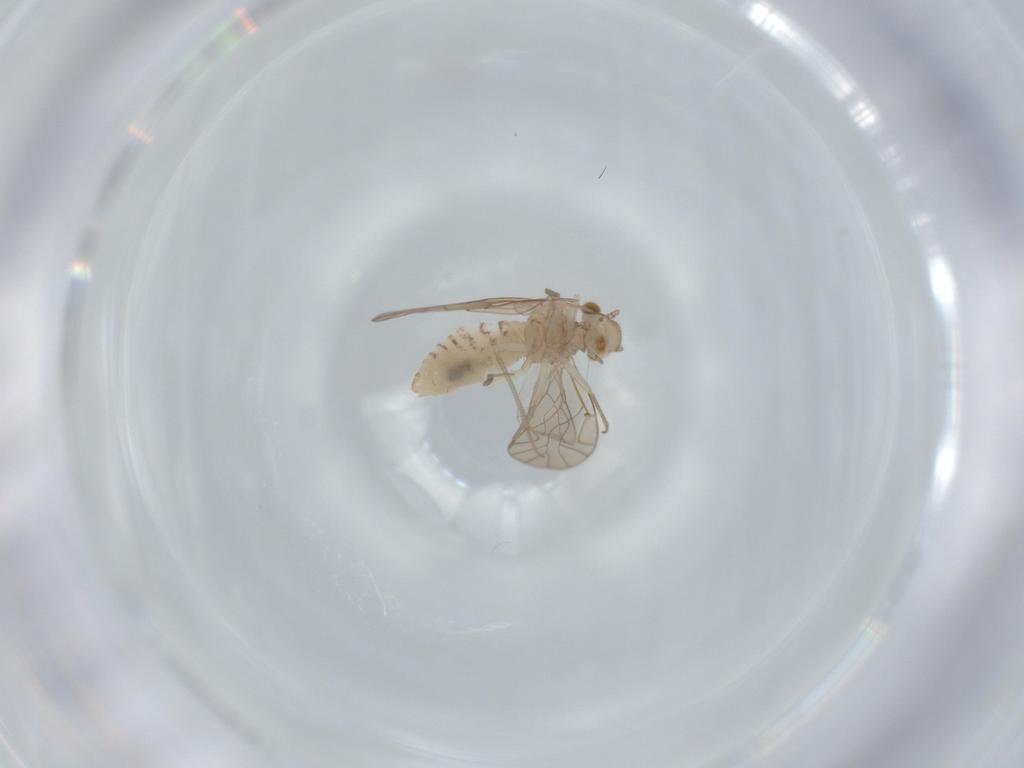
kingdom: Animalia
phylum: Arthropoda
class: Insecta
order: Psocodea
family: Lachesillidae
